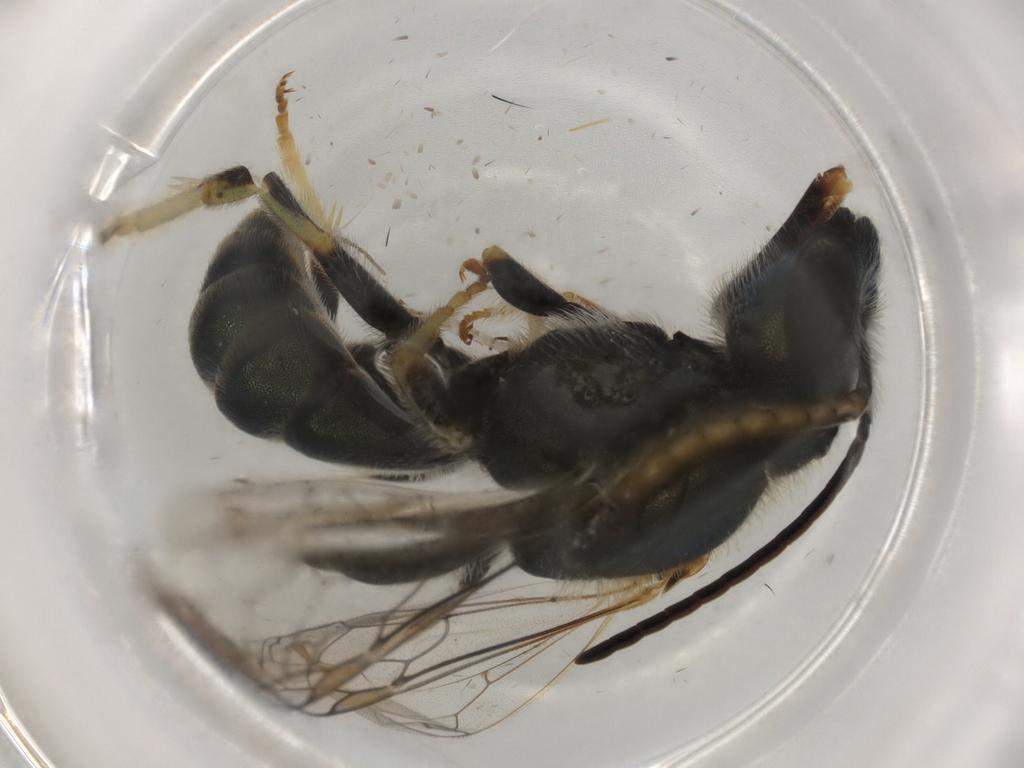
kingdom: Animalia
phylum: Arthropoda
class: Insecta
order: Hymenoptera
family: Halictidae
